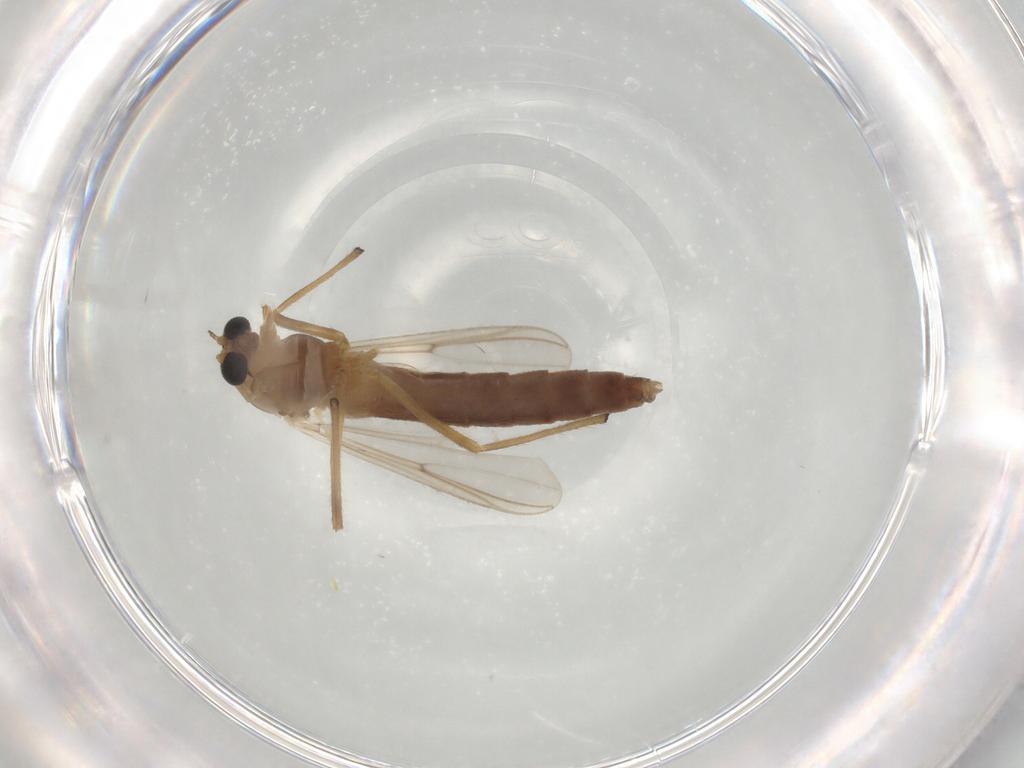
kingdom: Animalia
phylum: Arthropoda
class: Insecta
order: Diptera
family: Chironomidae
